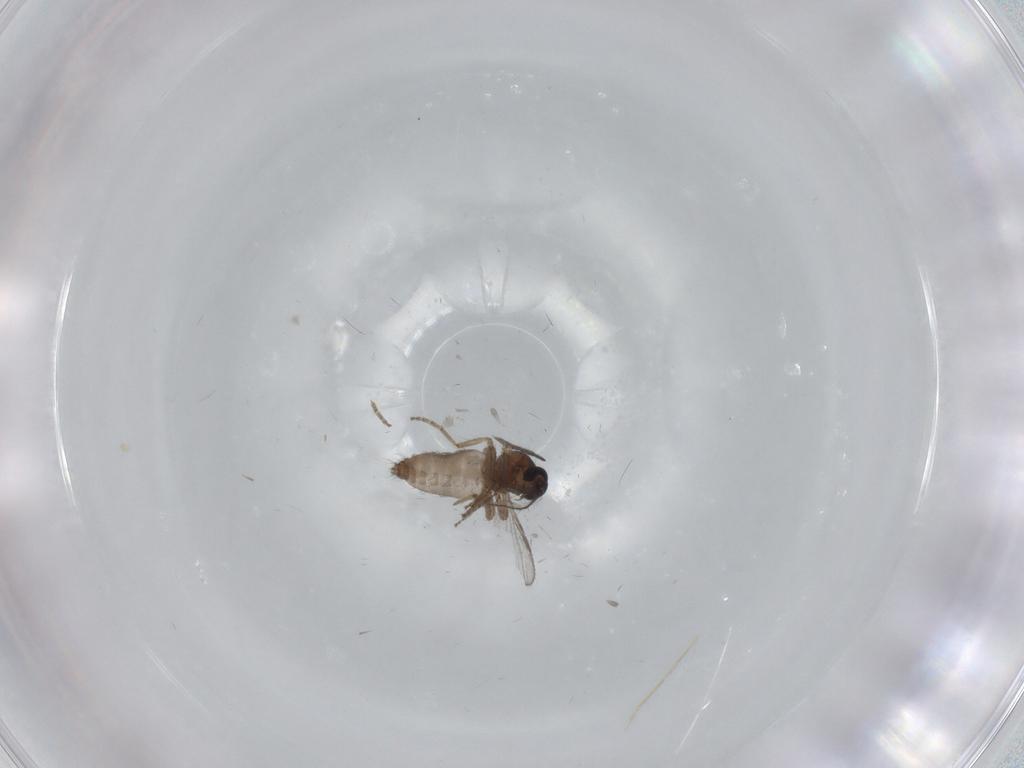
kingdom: Animalia
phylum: Arthropoda
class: Insecta
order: Diptera
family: Ceratopogonidae
